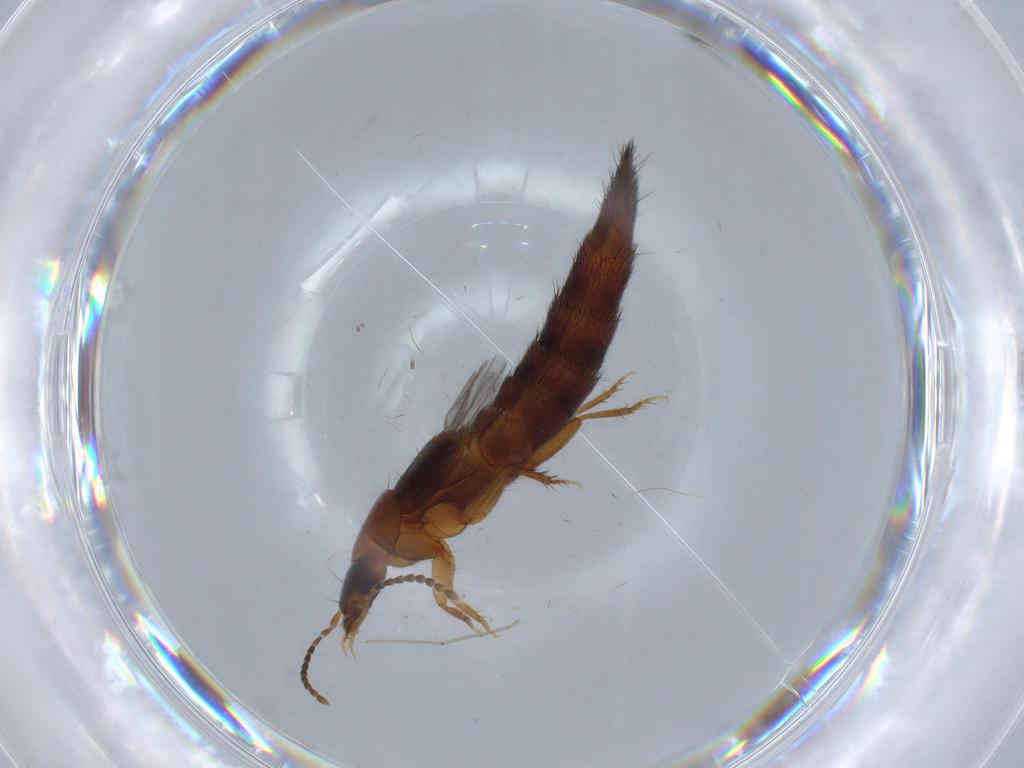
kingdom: Animalia
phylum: Arthropoda
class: Insecta
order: Coleoptera
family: Staphylinidae
